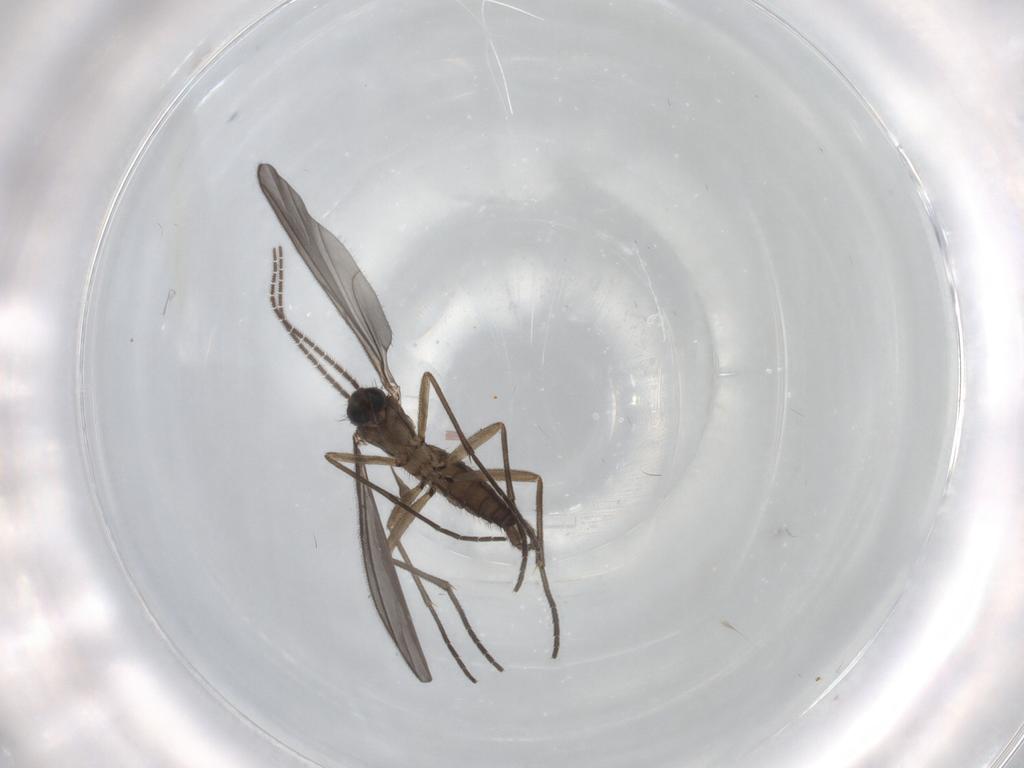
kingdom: Animalia
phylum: Arthropoda
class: Insecta
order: Diptera
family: Sciaridae
